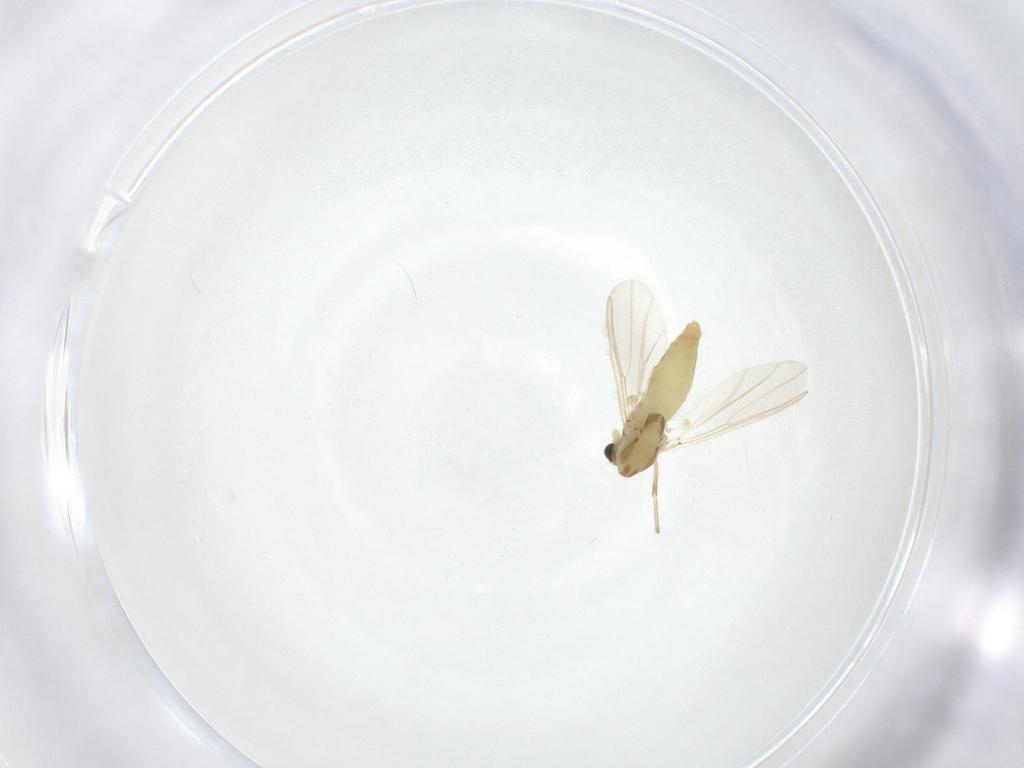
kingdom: Animalia
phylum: Arthropoda
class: Insecta
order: Diptera
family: Chironomidae
